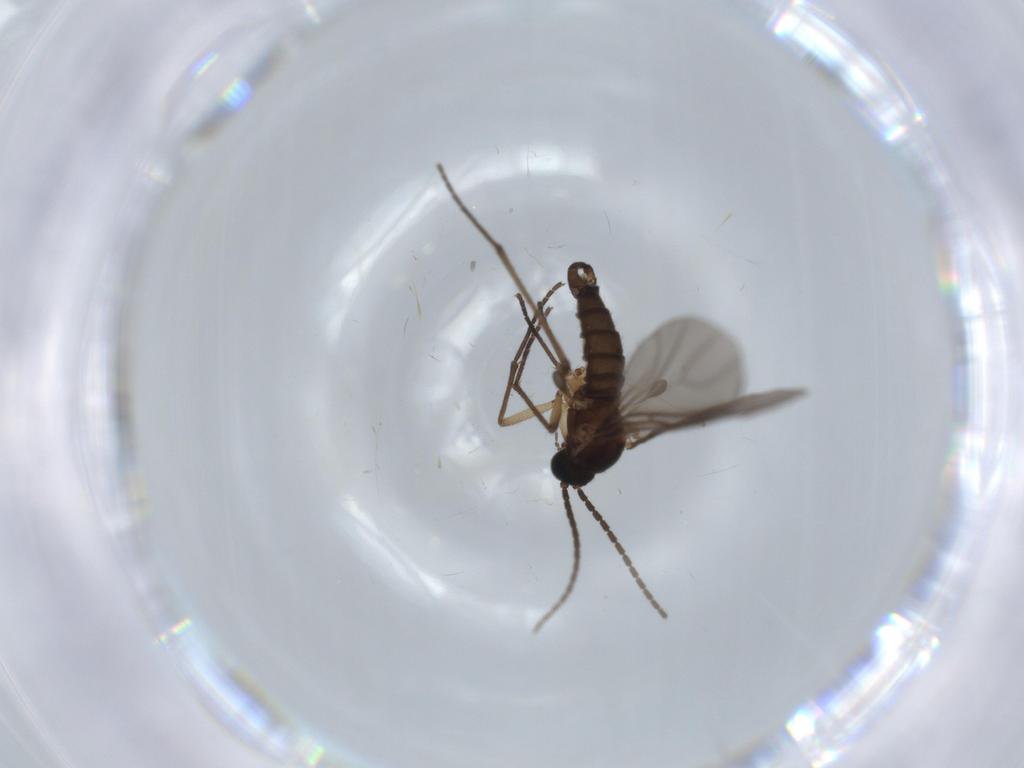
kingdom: Animalia
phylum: Arthropoda
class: Insecta
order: Diptera
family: Sciaridae
